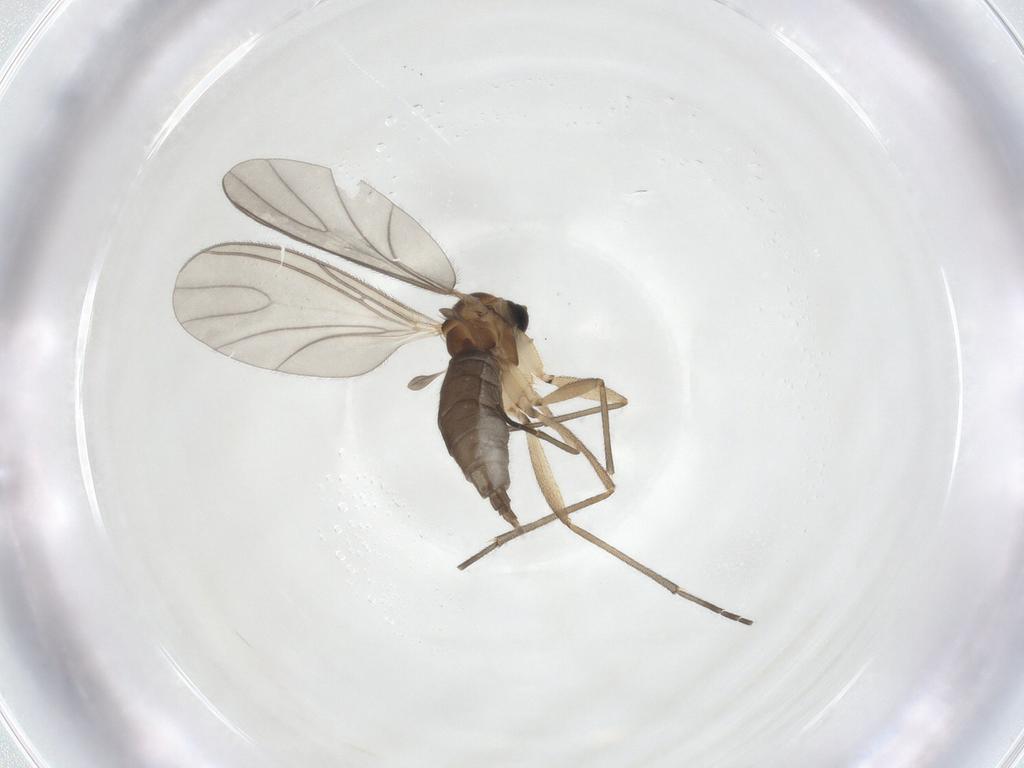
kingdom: Animalia
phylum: Arthropoda
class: Insecta
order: Diptera
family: Sciaridae
